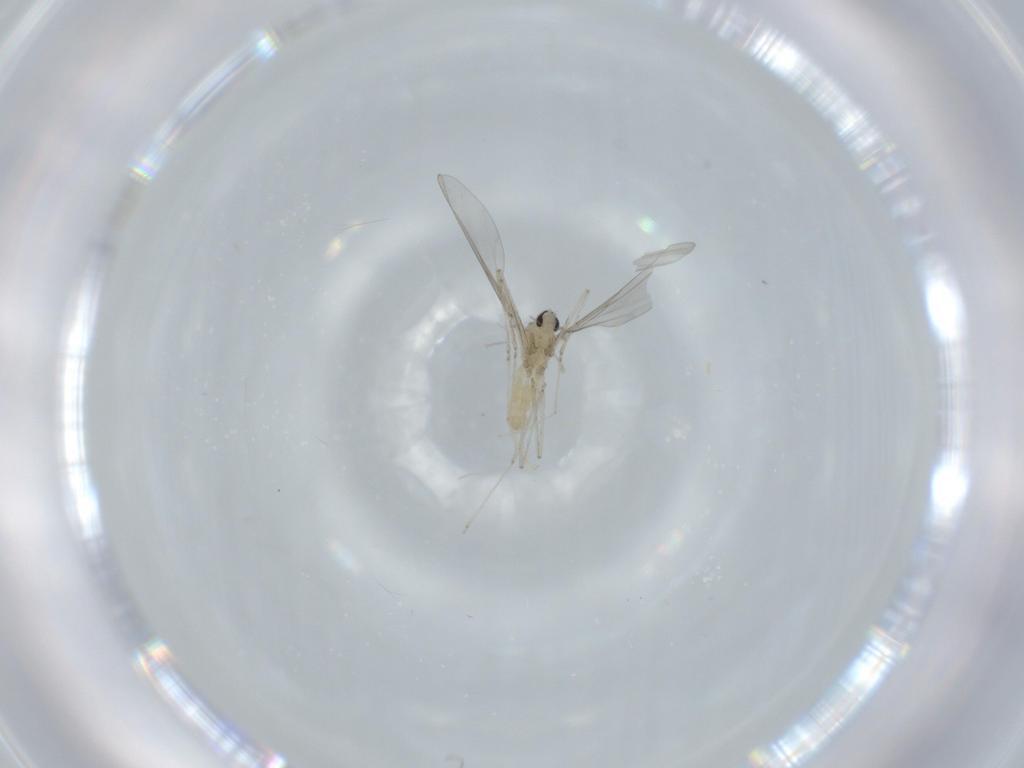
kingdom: Animalia
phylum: Arthropoda
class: Insecta
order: Diptera
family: Cecidomyiidae
